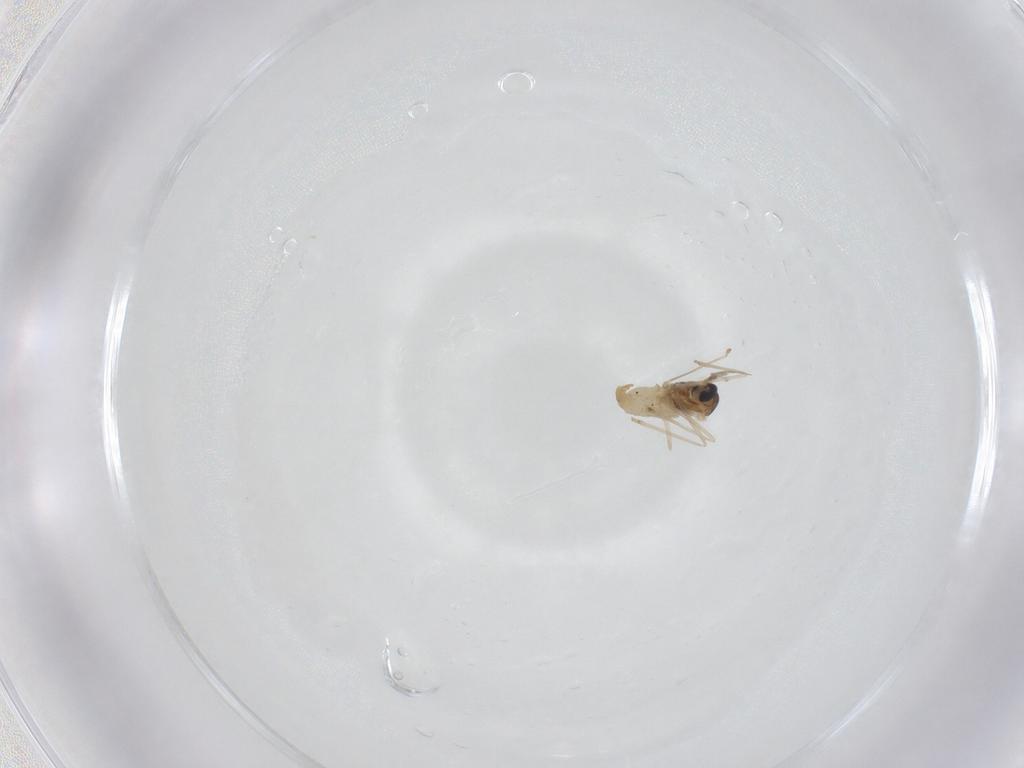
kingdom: Animalia
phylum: Arthropoda
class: Insecta
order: Diptera
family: Cecidomyiidae
